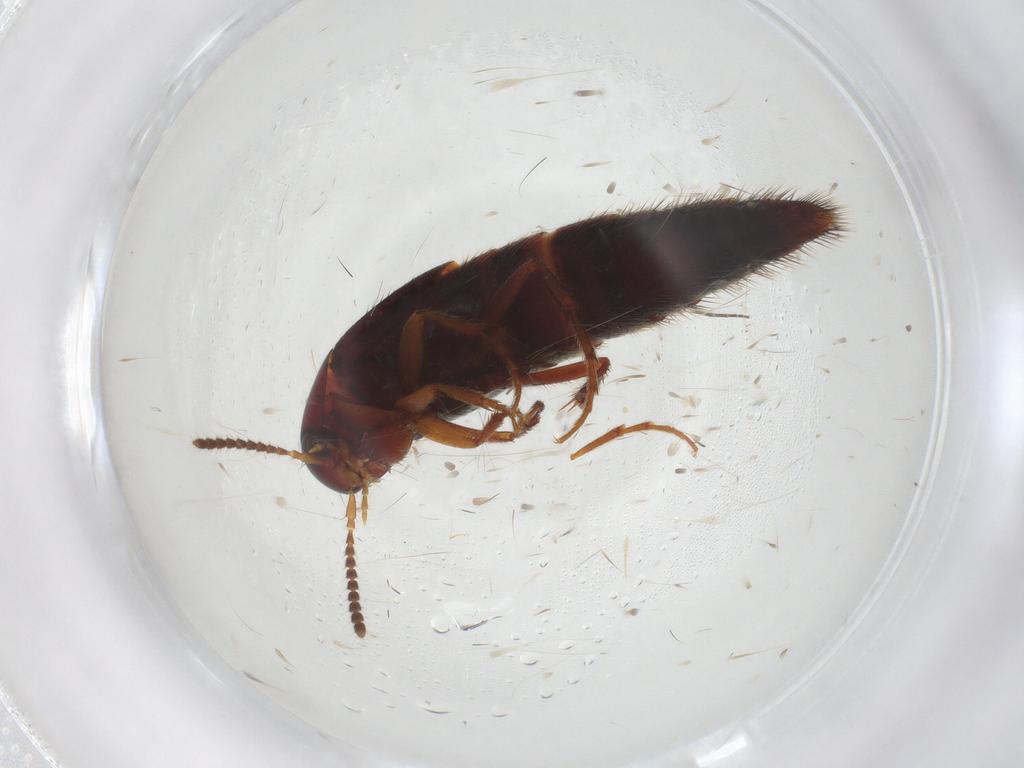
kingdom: Animalia
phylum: Arthropoda
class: Insecta
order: Coleoptera
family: Staphylinidae
